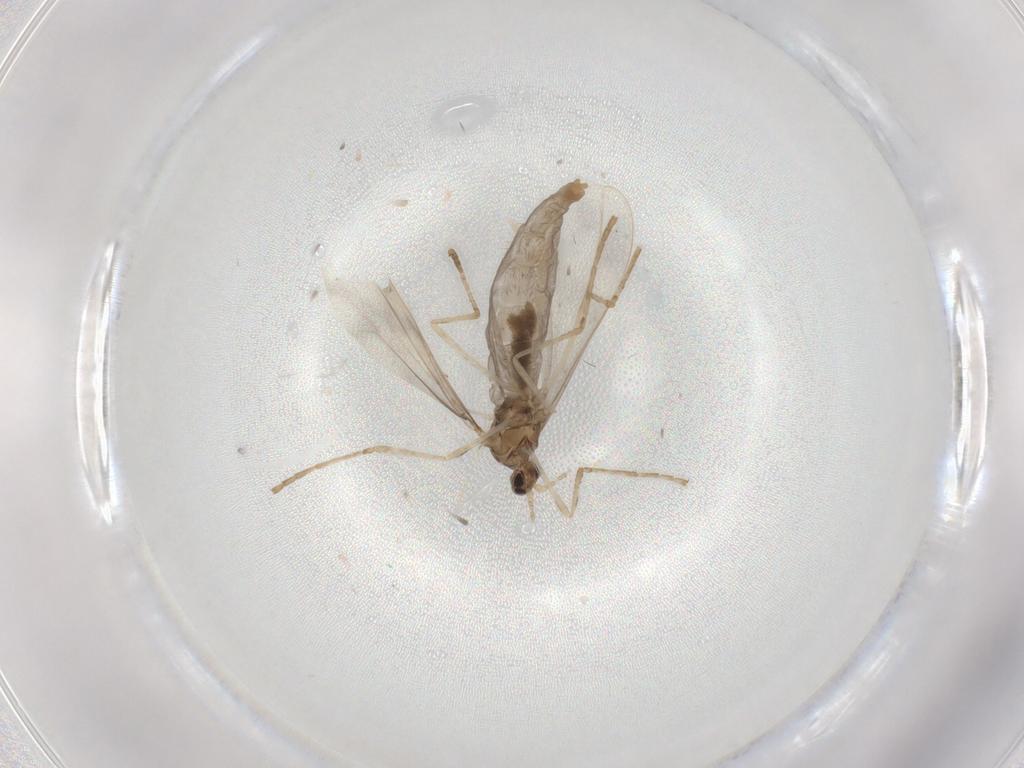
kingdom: Animalia
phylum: Arthropoda
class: Insecta
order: Diptera
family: Cecidomyiidae
